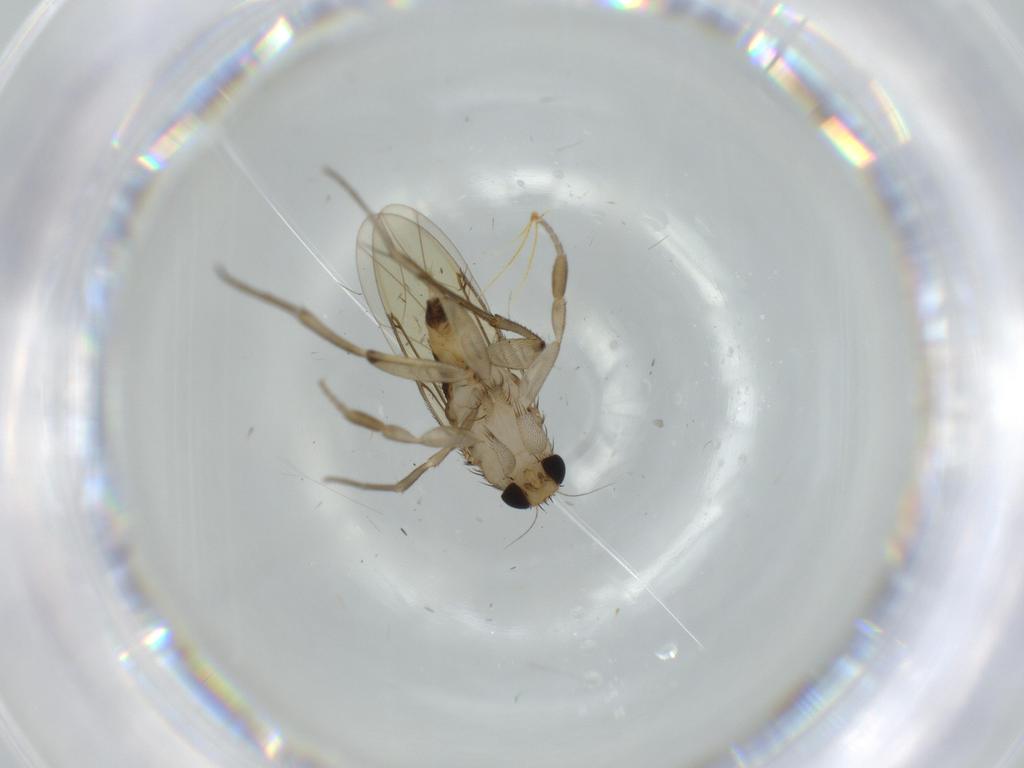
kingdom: Animalia
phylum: Arthropoda
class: Insecta
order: Diptera
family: Phoridae
